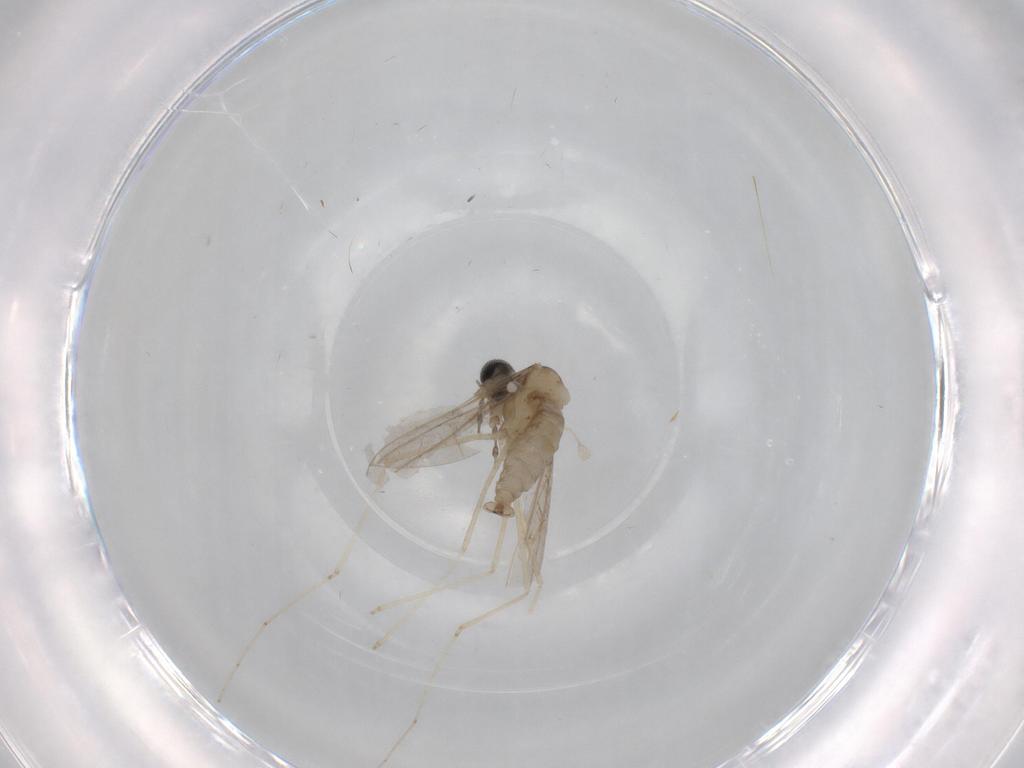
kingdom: Animalia
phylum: Arthropoda
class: Insecta
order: Diptera
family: Cecidomyiidae
